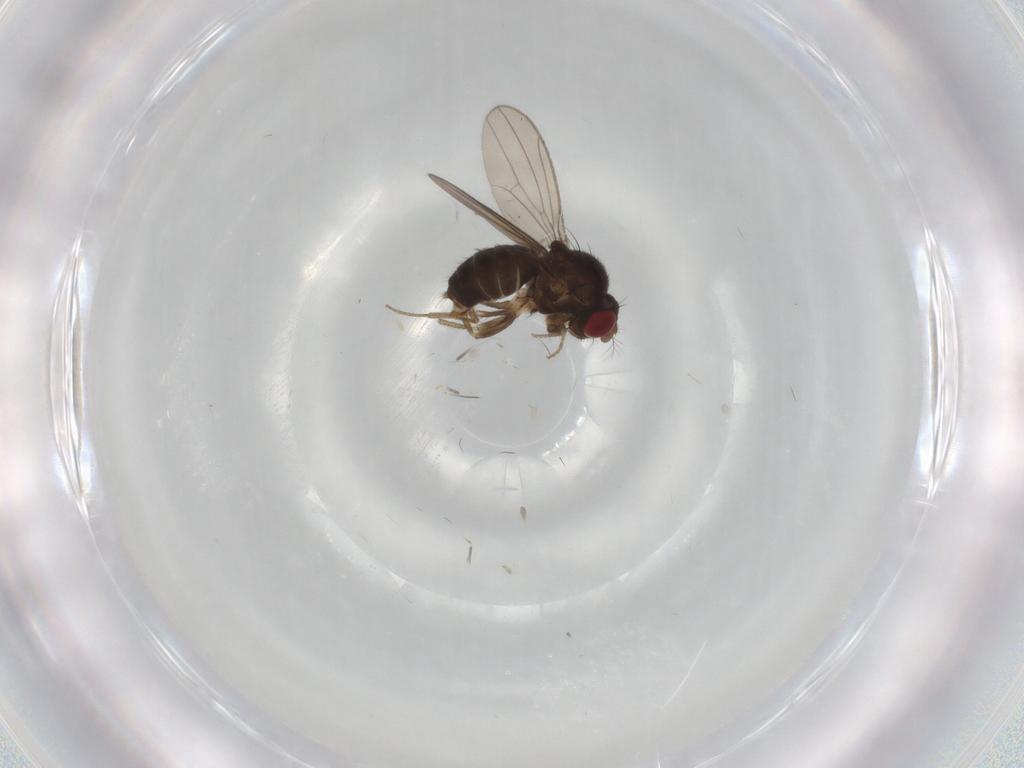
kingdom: Animalia
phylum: Arthropoda
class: Insecta
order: Diptera
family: Drosophilidae
